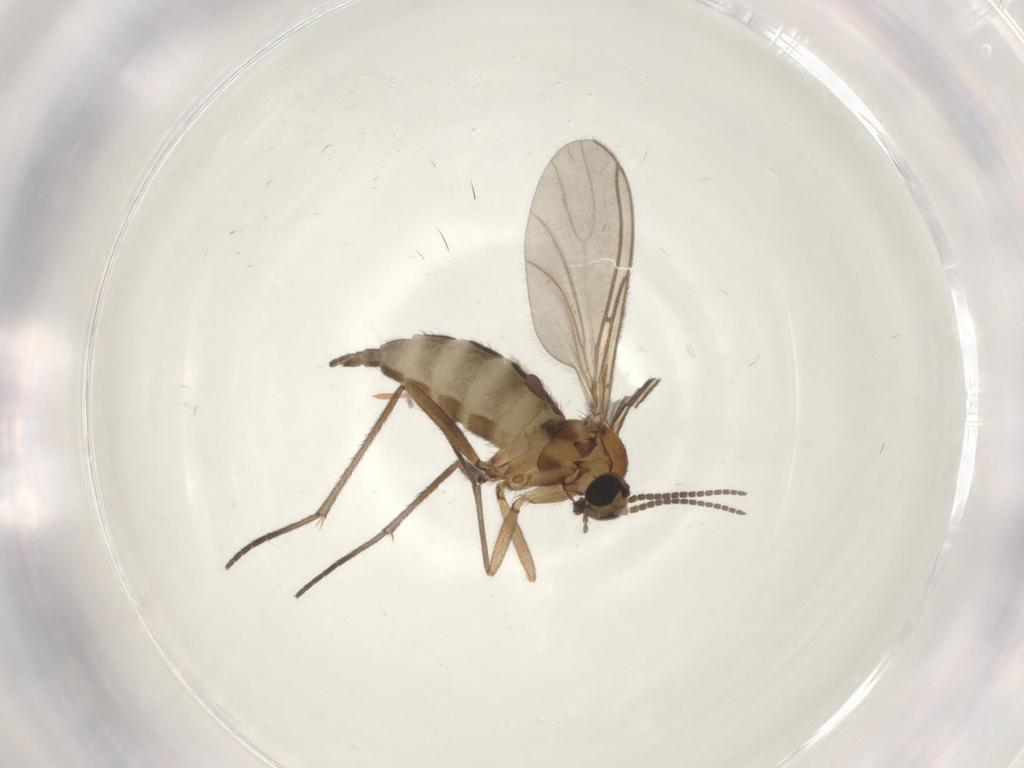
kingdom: Animalia
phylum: Arthropoda
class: Insecta
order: Diptera
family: Sciaridae
